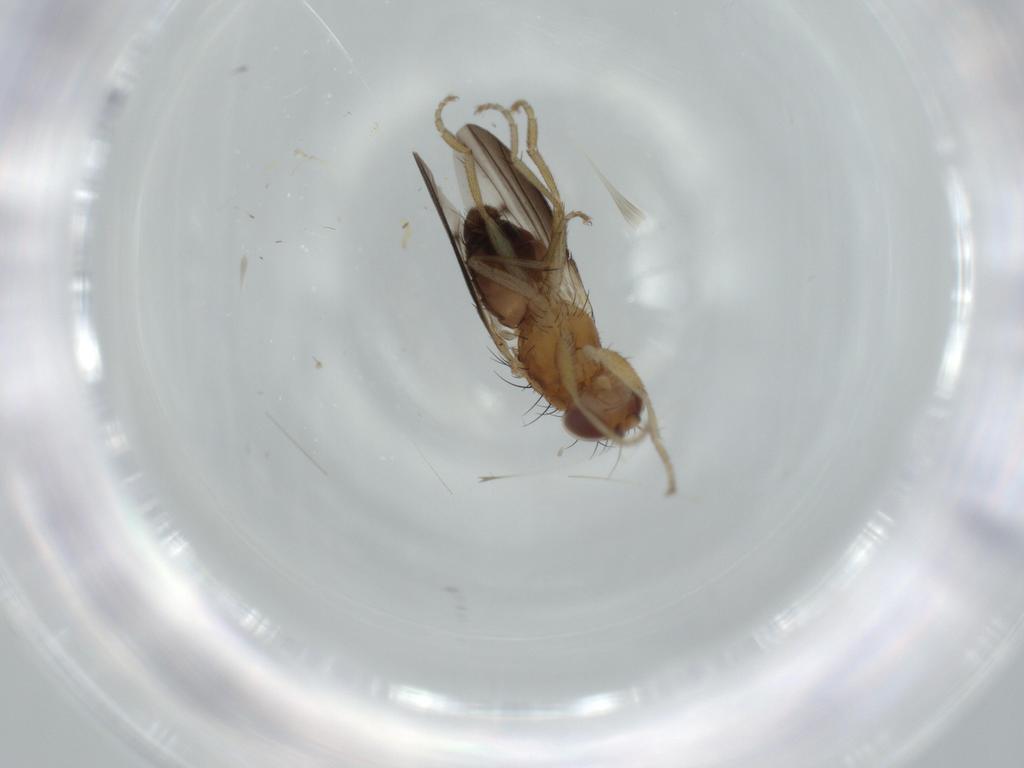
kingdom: Animalia
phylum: Arthropoda
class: Insecta
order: Diptera
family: Heleomyzidae
